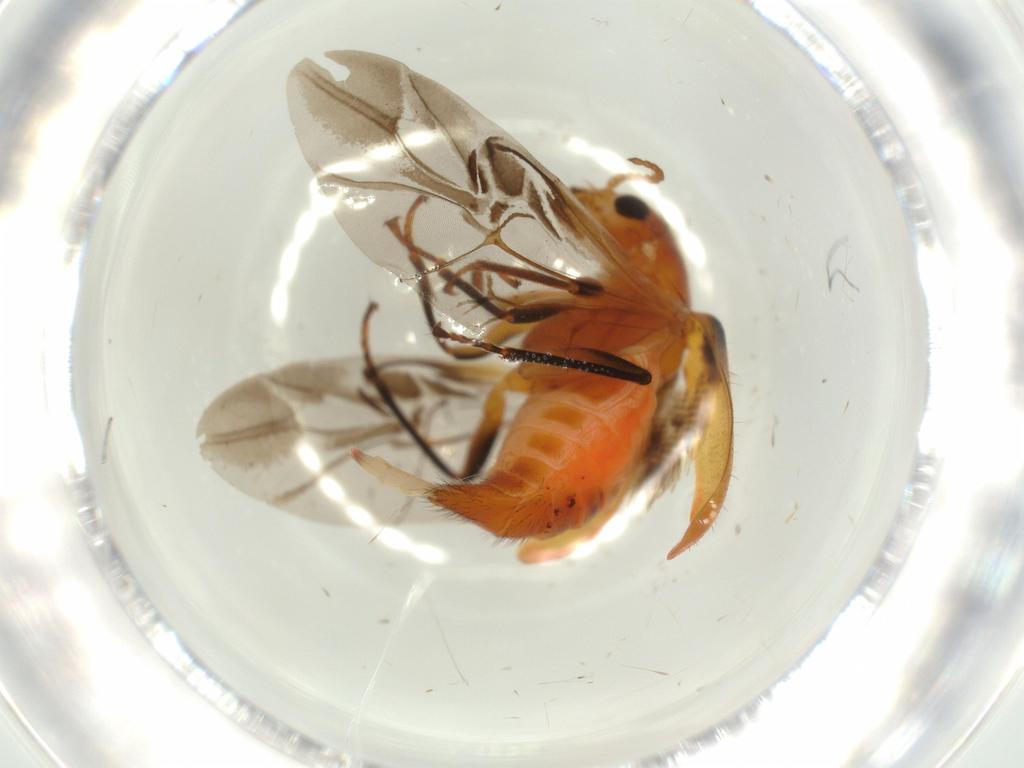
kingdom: Animalia
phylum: Arthropoda
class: Insecta
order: Coleoptera
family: Melyridae
